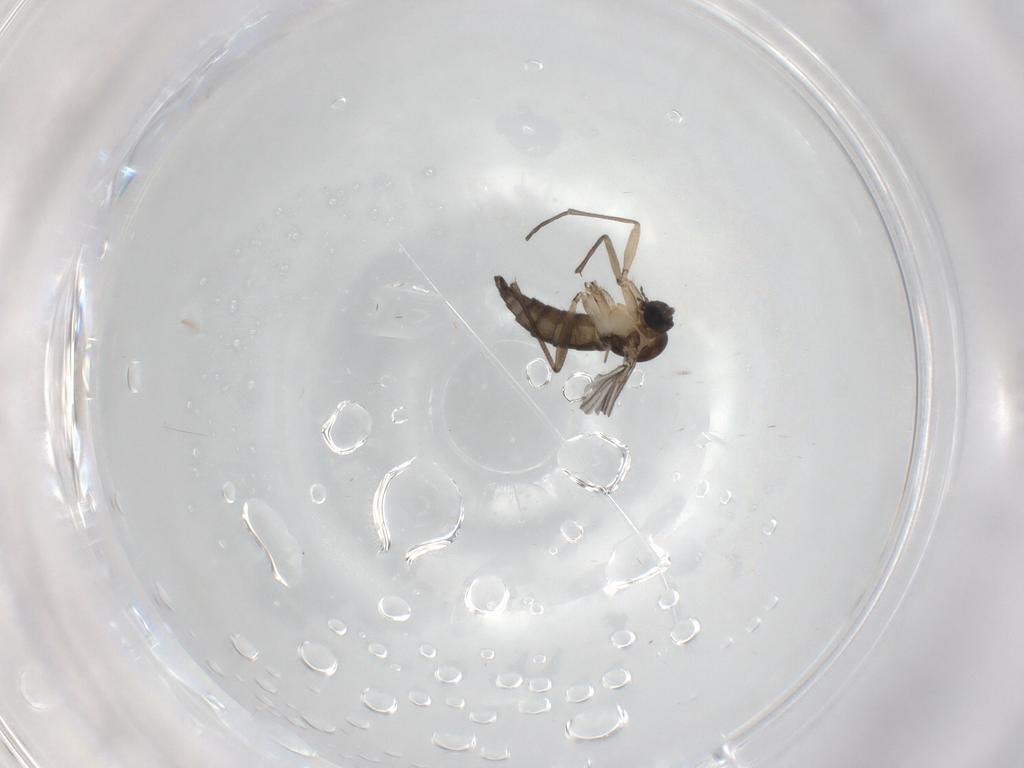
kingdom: Animalia
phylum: Arthropoda
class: Insecta
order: Diptera
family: Sciaridae
